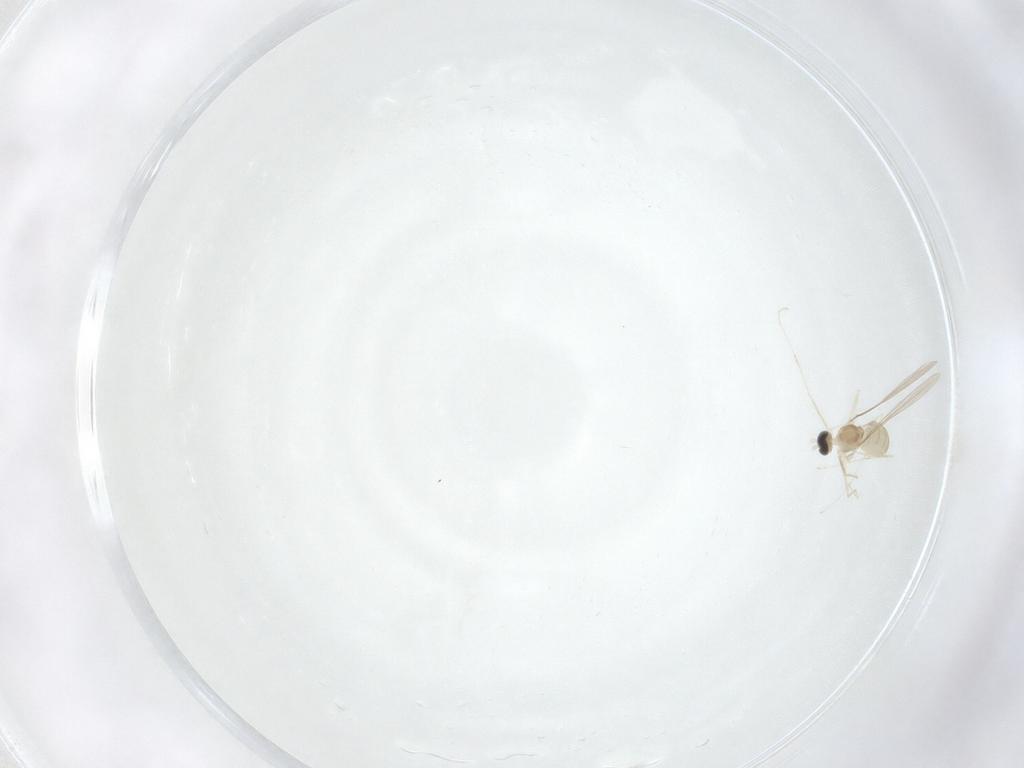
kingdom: Animalia
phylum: Arthropoda
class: Insecta
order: Diptera
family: Cecidomyiidae
